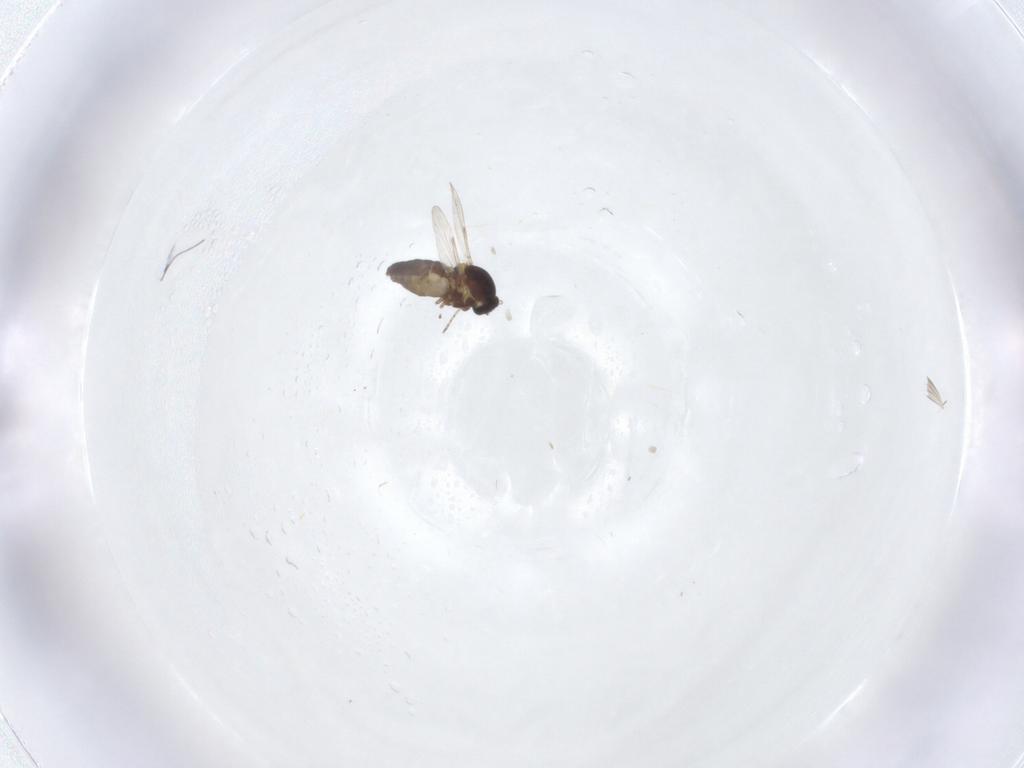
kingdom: Animalia
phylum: Arthropoda
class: Insecta
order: Diptera
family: Ceratopogonidae
